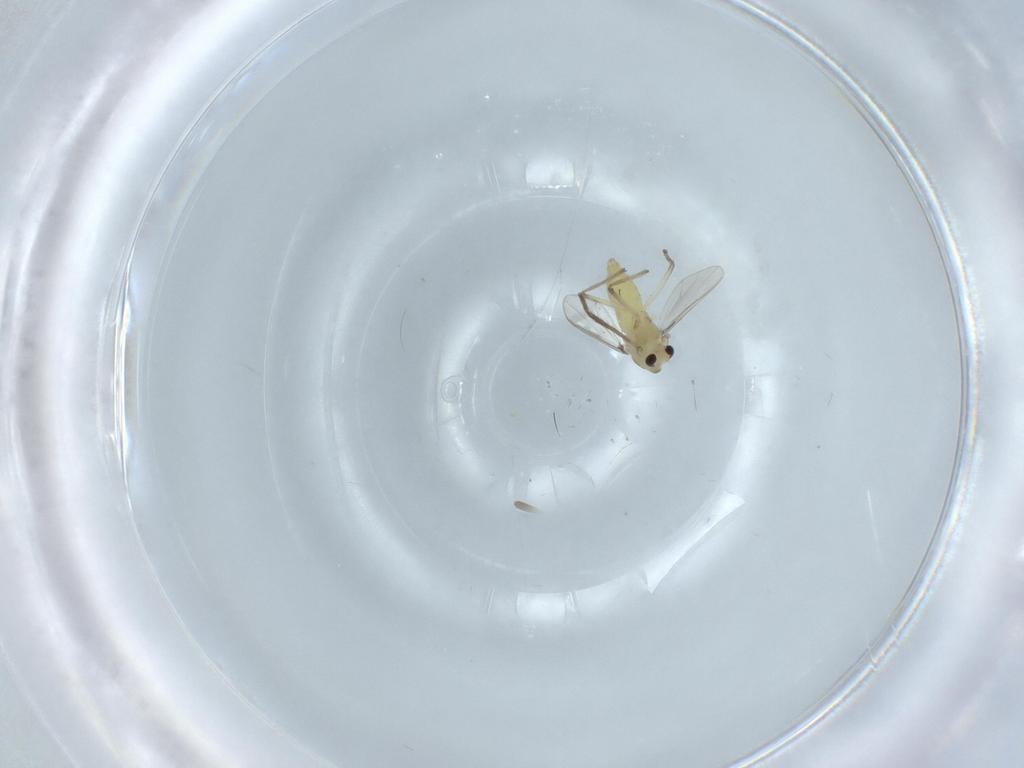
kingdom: Animalia
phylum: Arthropoda
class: Insecta
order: Diptera
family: Chironomidae
